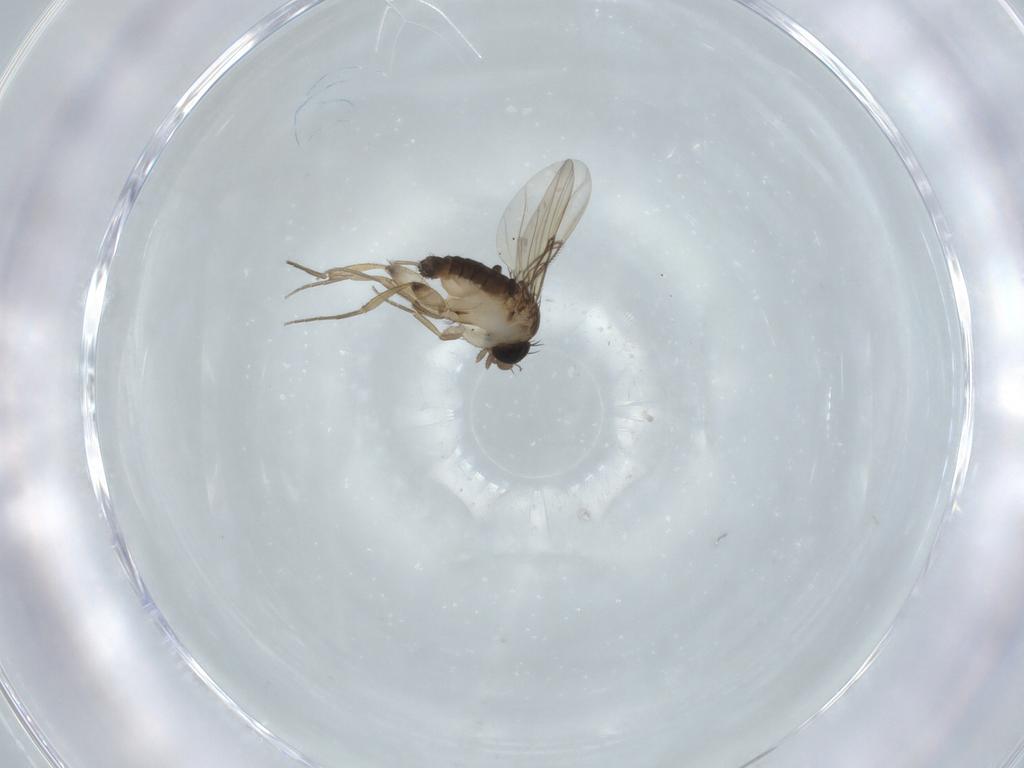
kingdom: Animalia
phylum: Arthropoda
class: Insecta
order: Diptera
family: Phoridae
